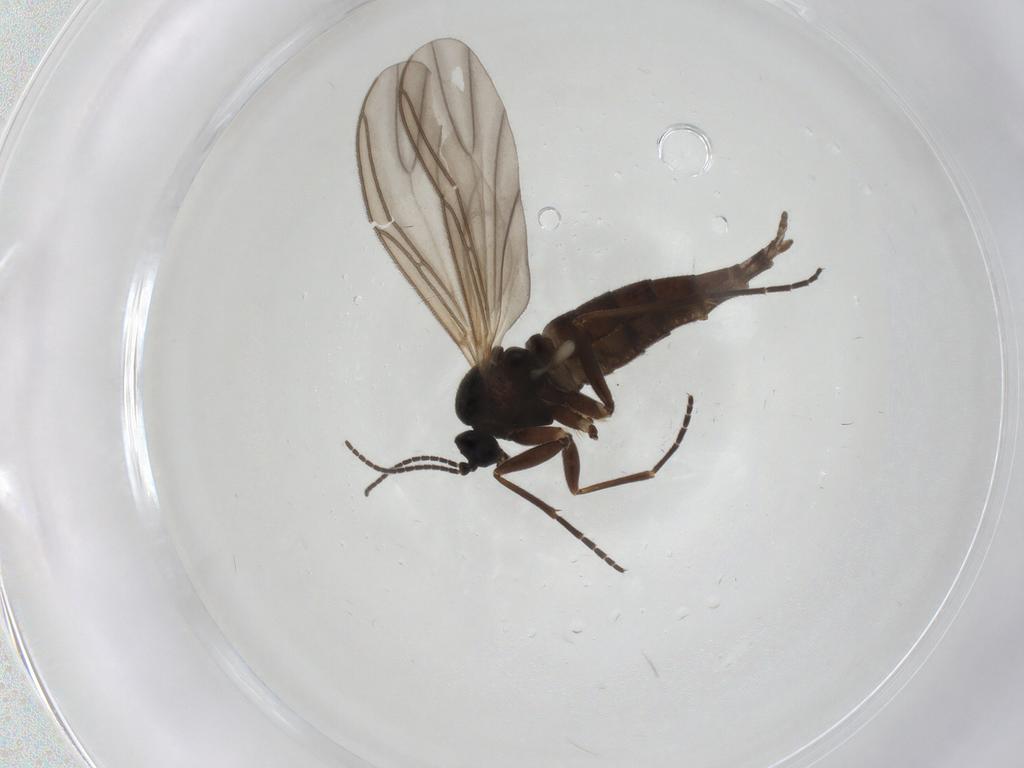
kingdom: Animalia
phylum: Arthropoda
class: Insecta
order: Diptera
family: Sciaridae
